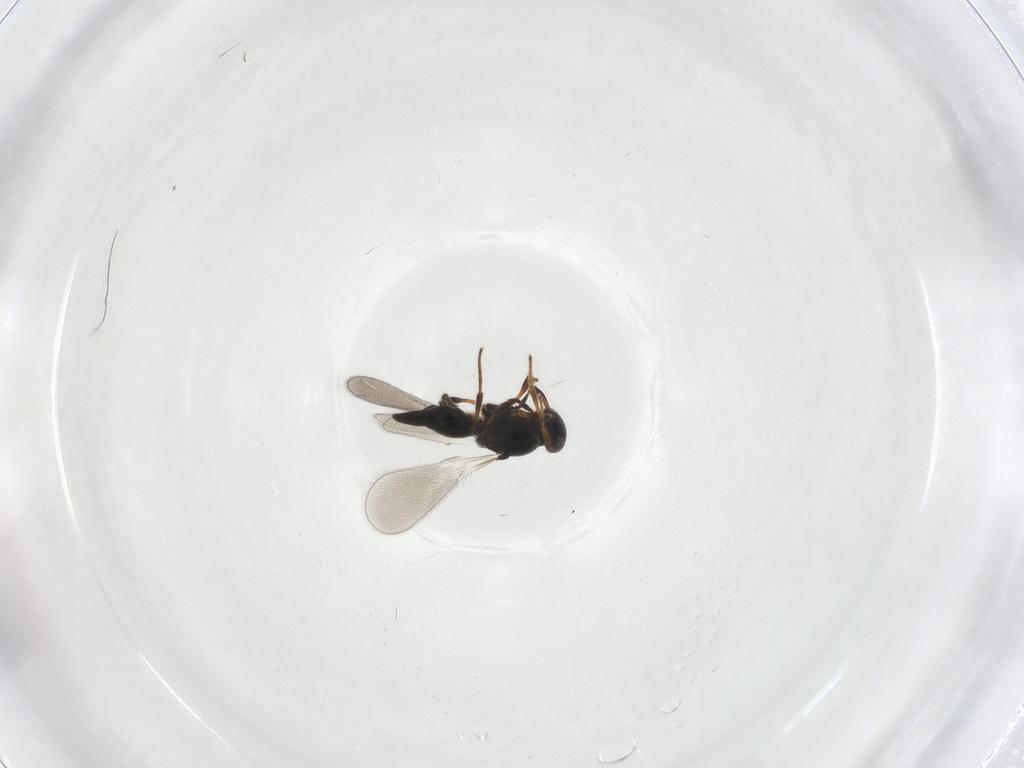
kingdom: Animalia
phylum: Arthropoda
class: Insecta
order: Hymenoptera
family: Platygastridae
